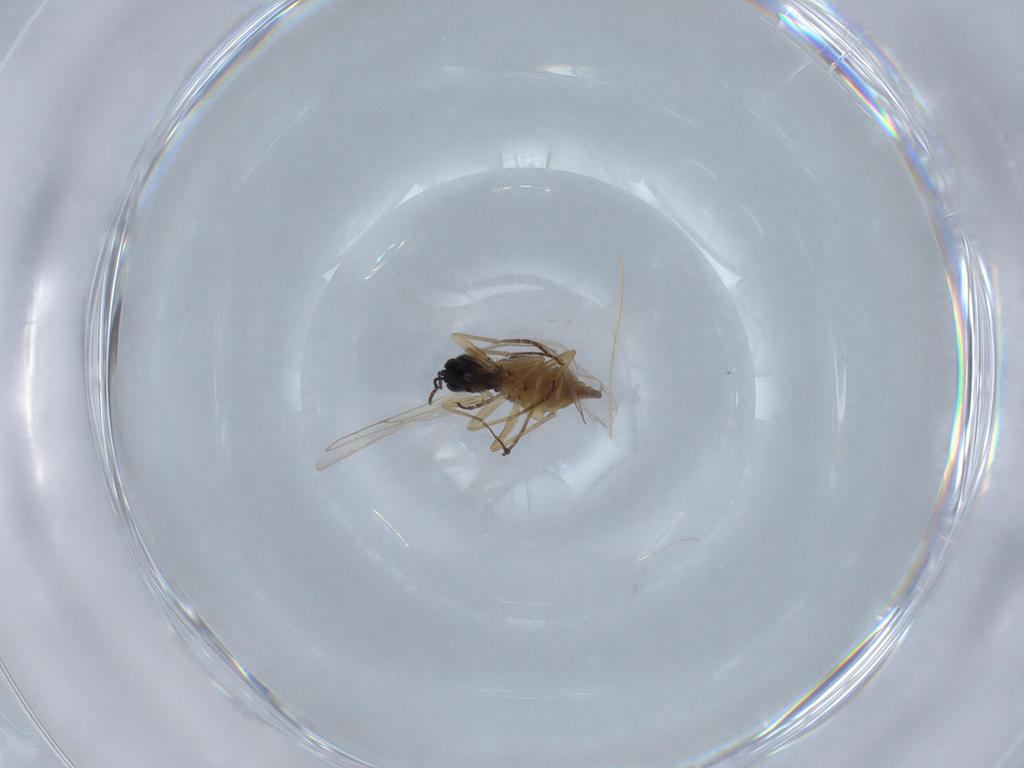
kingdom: Animalia
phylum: Arthropoda
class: Insecta
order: Diptera
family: Sciaridae
